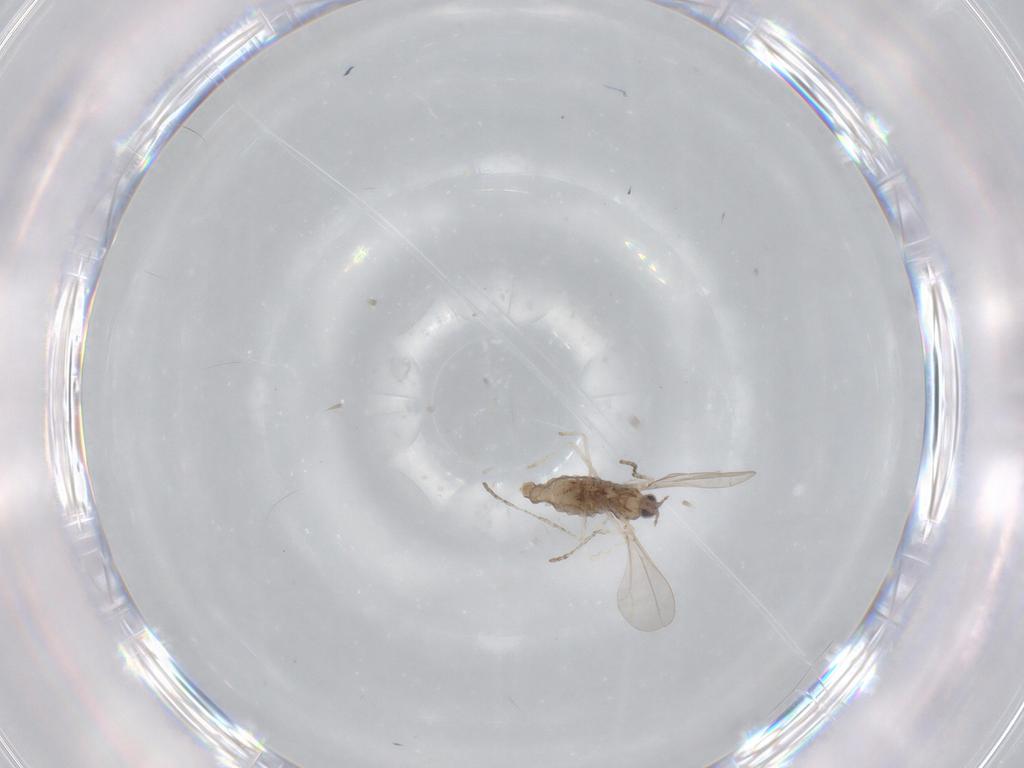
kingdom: Animalia
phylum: Arthropoda
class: Insecta
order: Diptera
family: Cecidomyiidae
